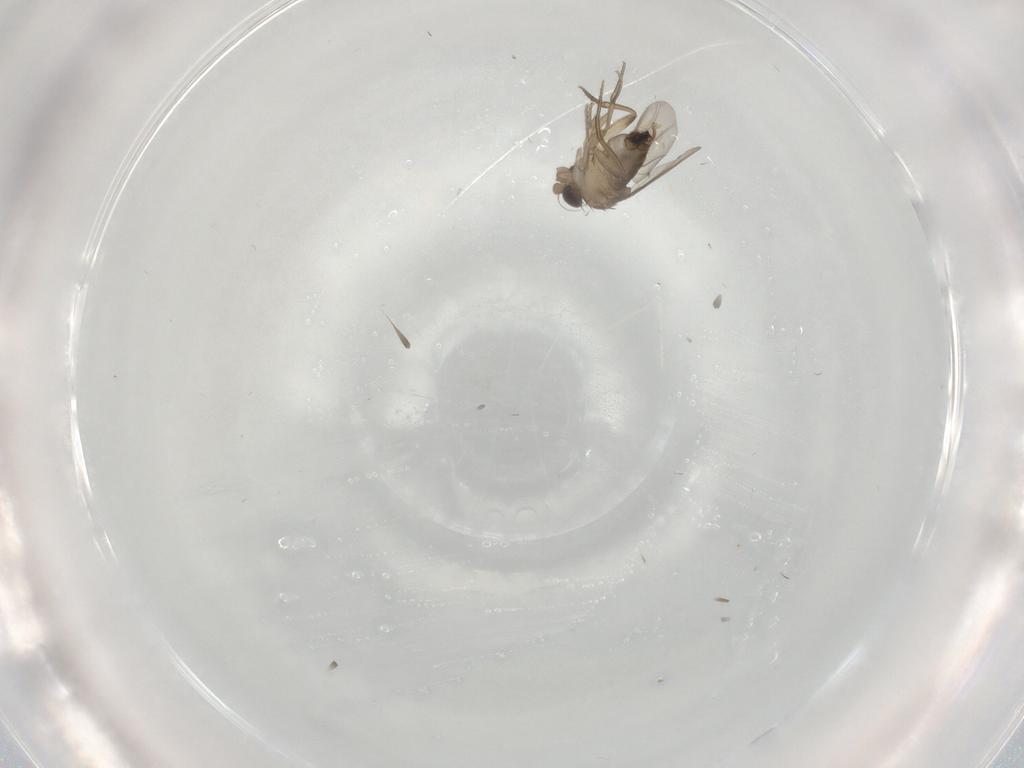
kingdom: Animalia
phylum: Arthropoda
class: Insecta
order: Diptera
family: Phoridae
